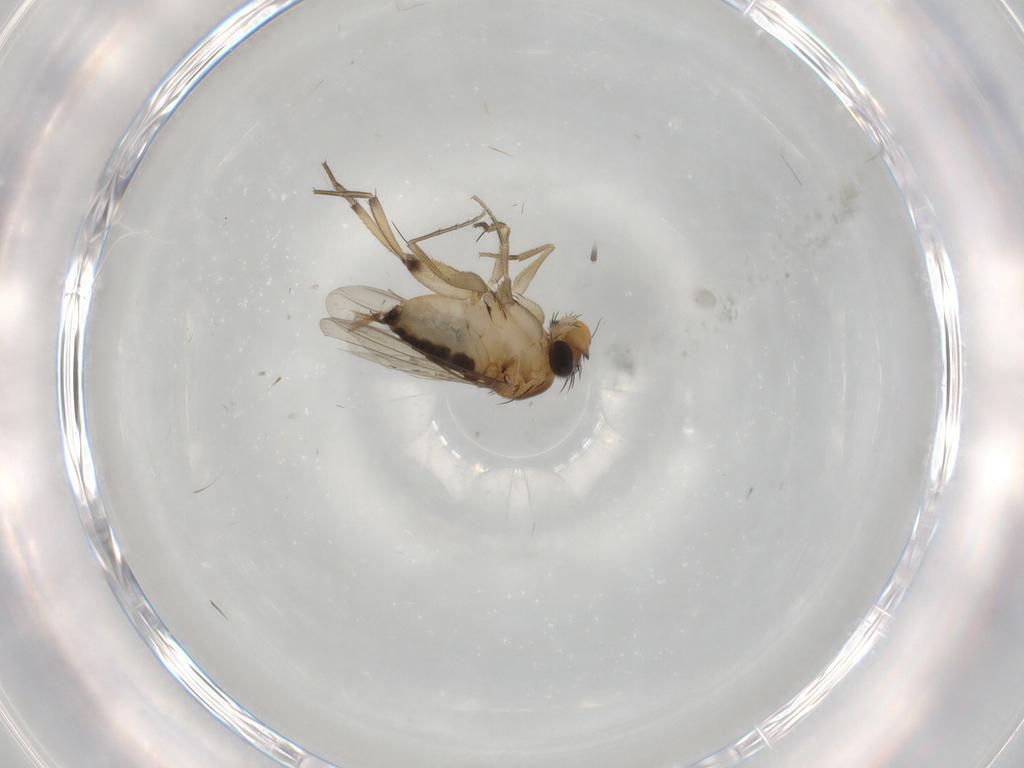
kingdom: Animalia
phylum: Arthropoda
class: Insecta
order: Diptera
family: Chironomidae
